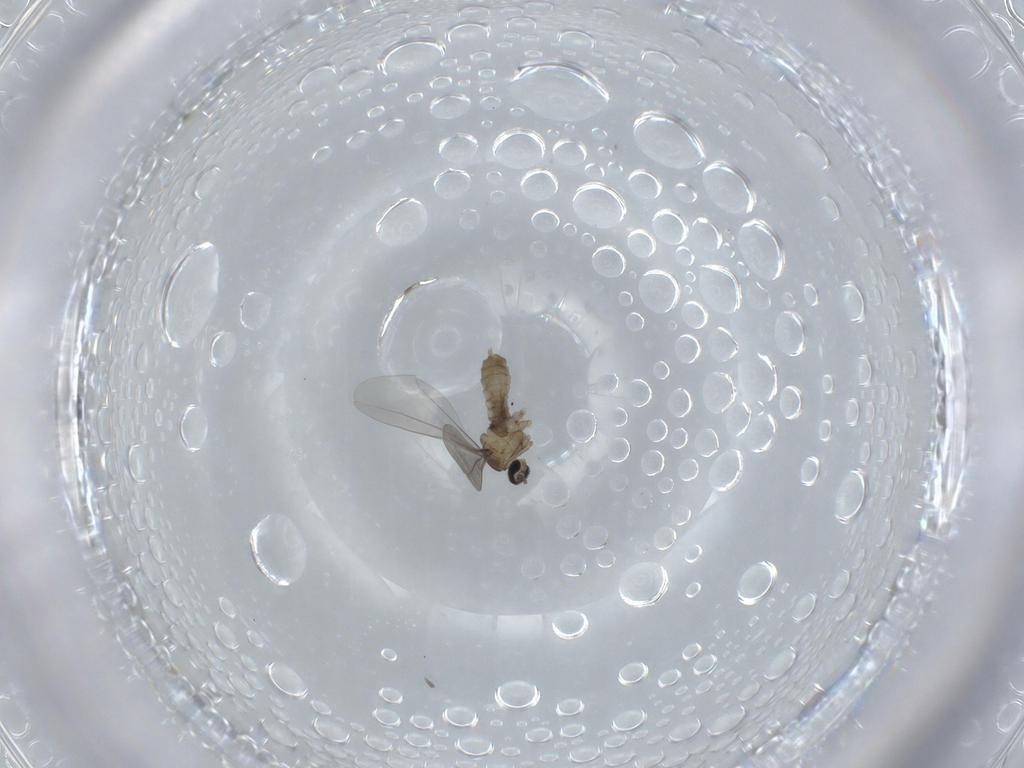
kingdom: Animalia
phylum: Arthropoda
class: Insecta
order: Diptera
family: Cecidomyiidae
